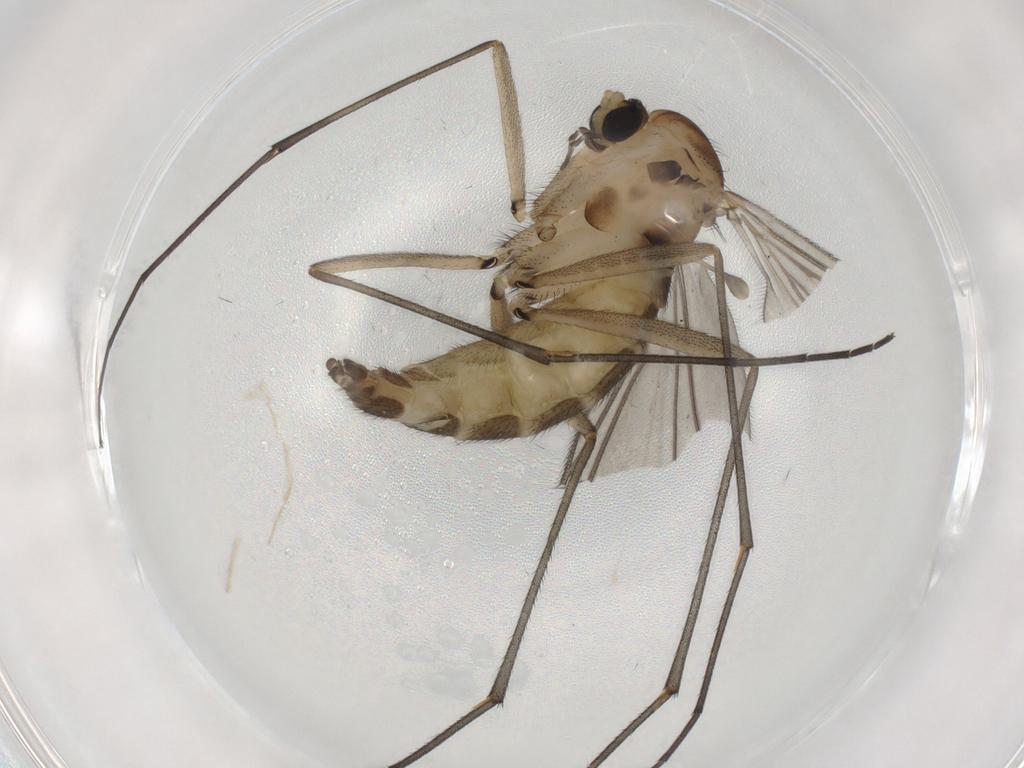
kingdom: Animalia
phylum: Arthropoda
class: Insecta
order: Diptera
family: Sciaridae
